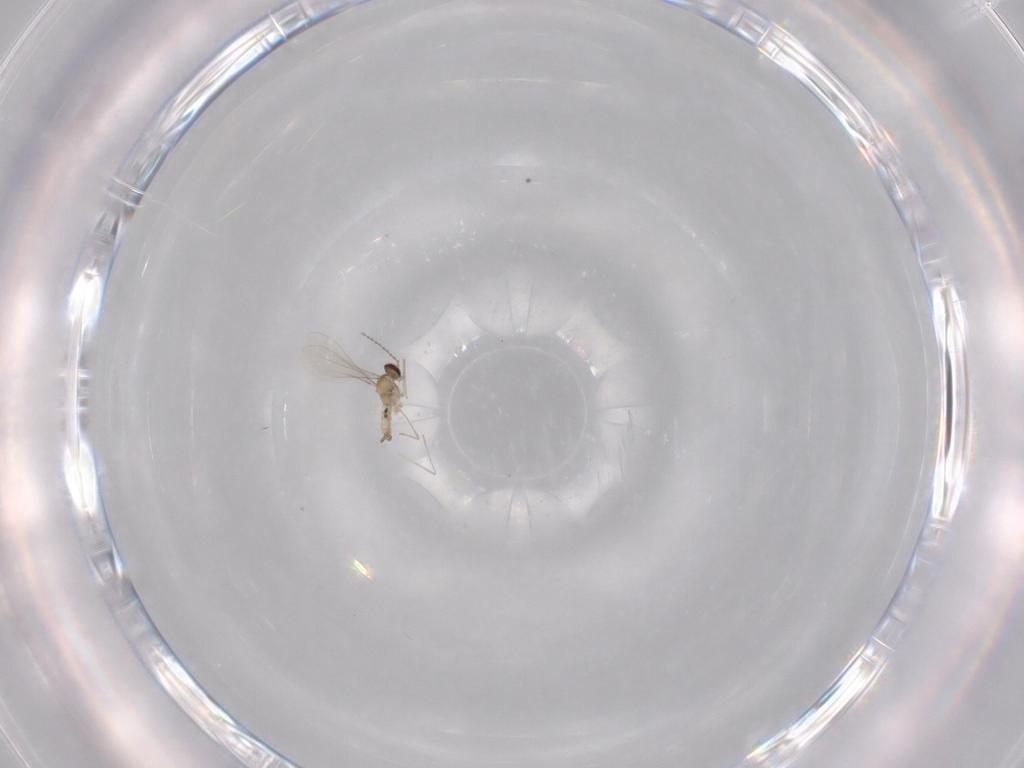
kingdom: Animalia
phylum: Arthropoda
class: Insecta
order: Diptera
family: Cecidomyiidae
